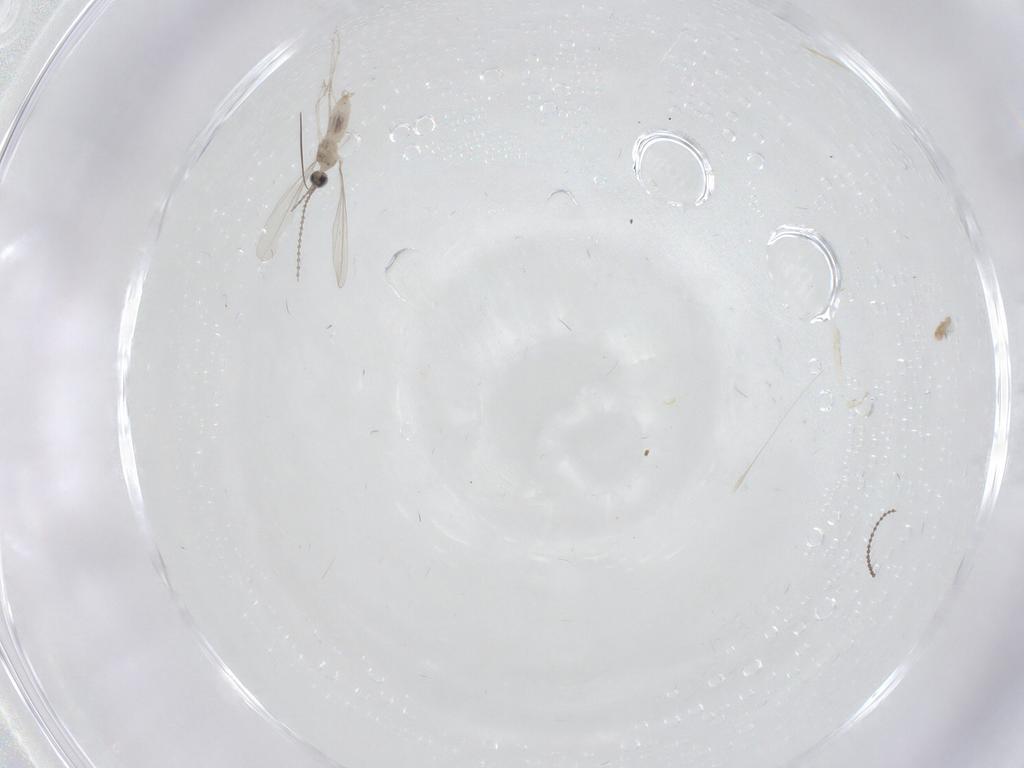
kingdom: Animalia
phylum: Arthropoda
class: Insecta
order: Diptera
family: Cecidomyiidae
